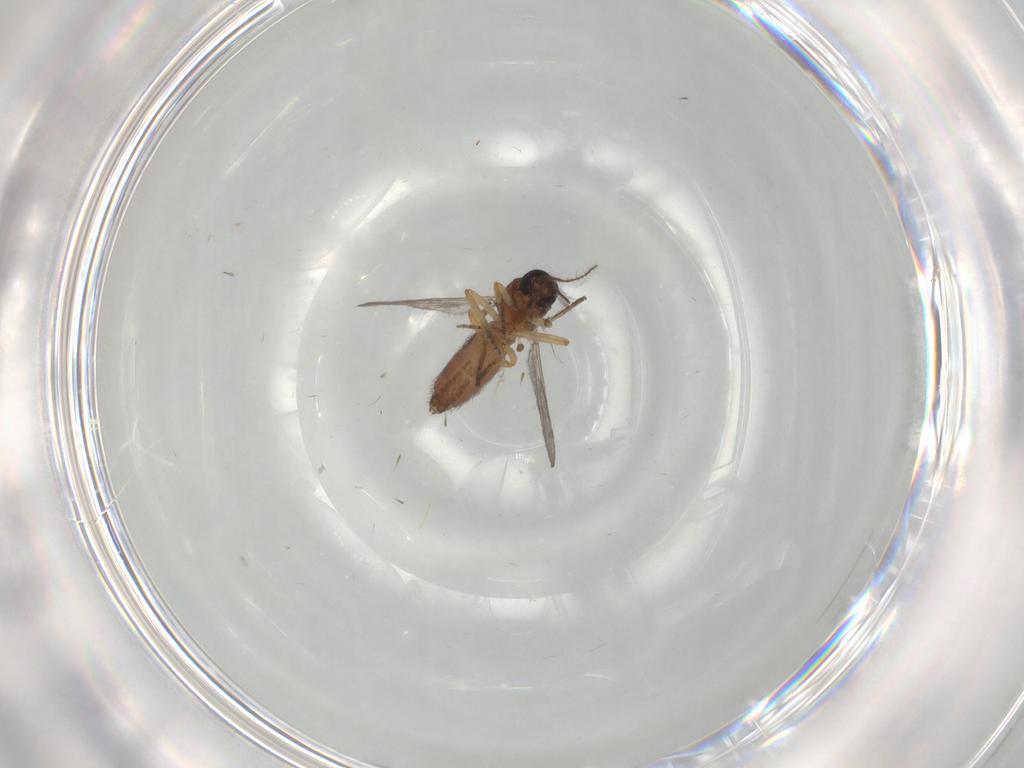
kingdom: Animalia
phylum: Arthropoda
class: Insecta
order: Diptera
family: Ceratopogonidae
